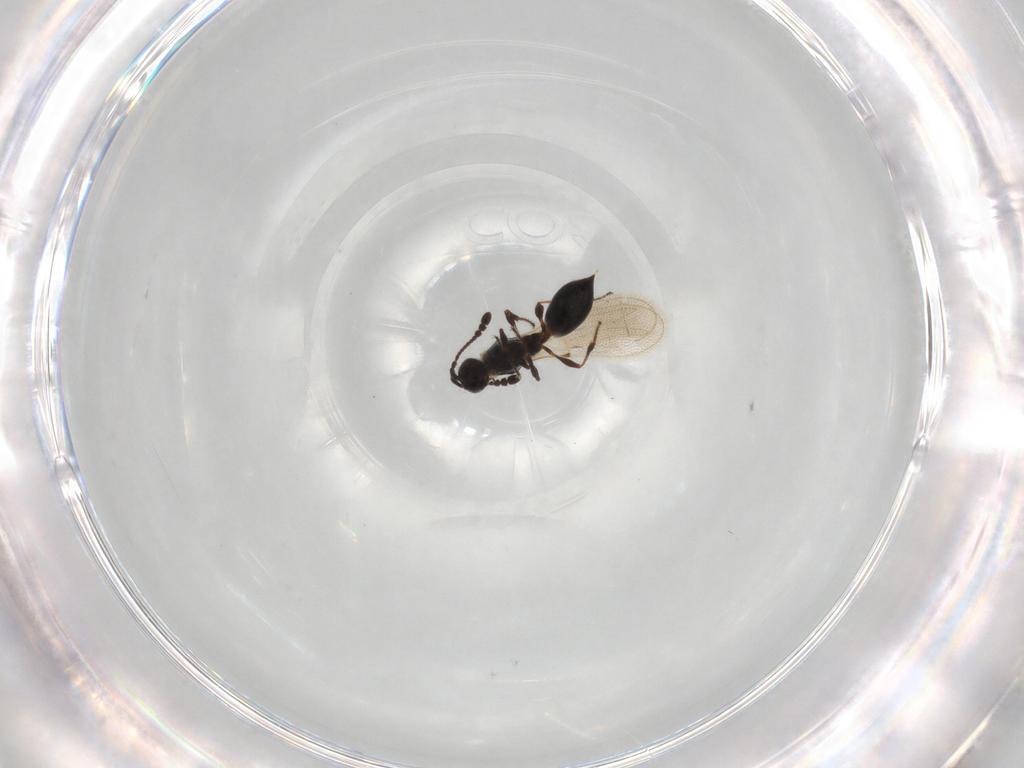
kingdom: Animalia
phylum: Arthropoda
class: Insecta
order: Hymenoptera
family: Diapriidae
